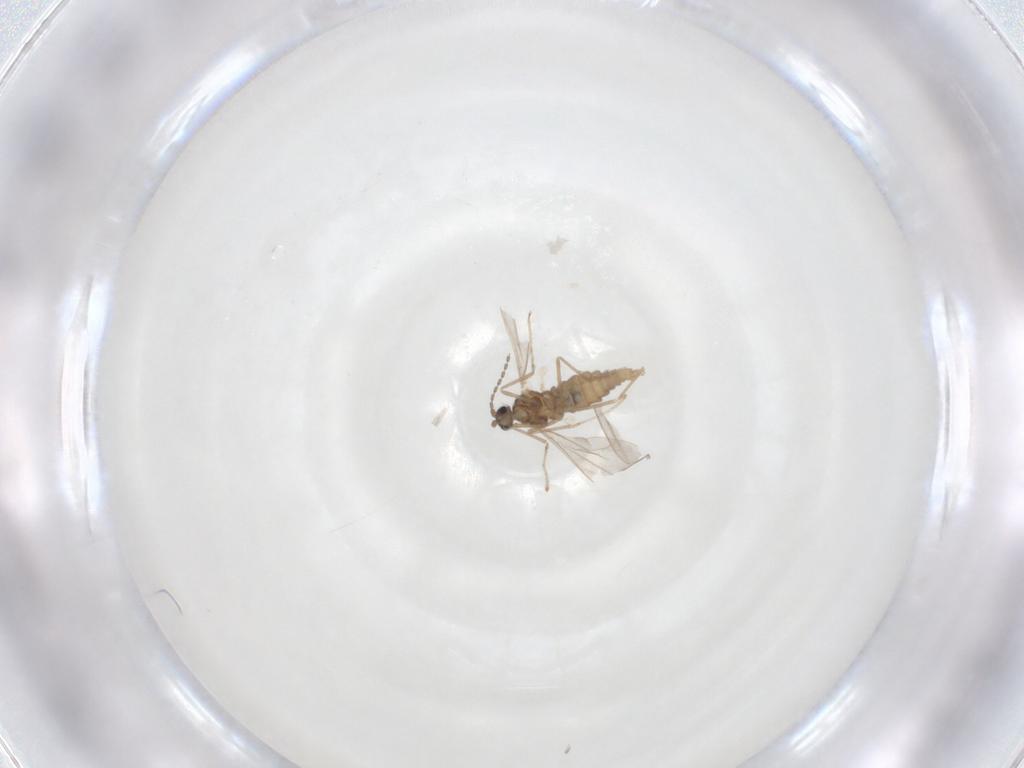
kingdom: Animalia
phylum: Arthropoda
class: Insecta
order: Diptera
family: Cecidomyiidae
